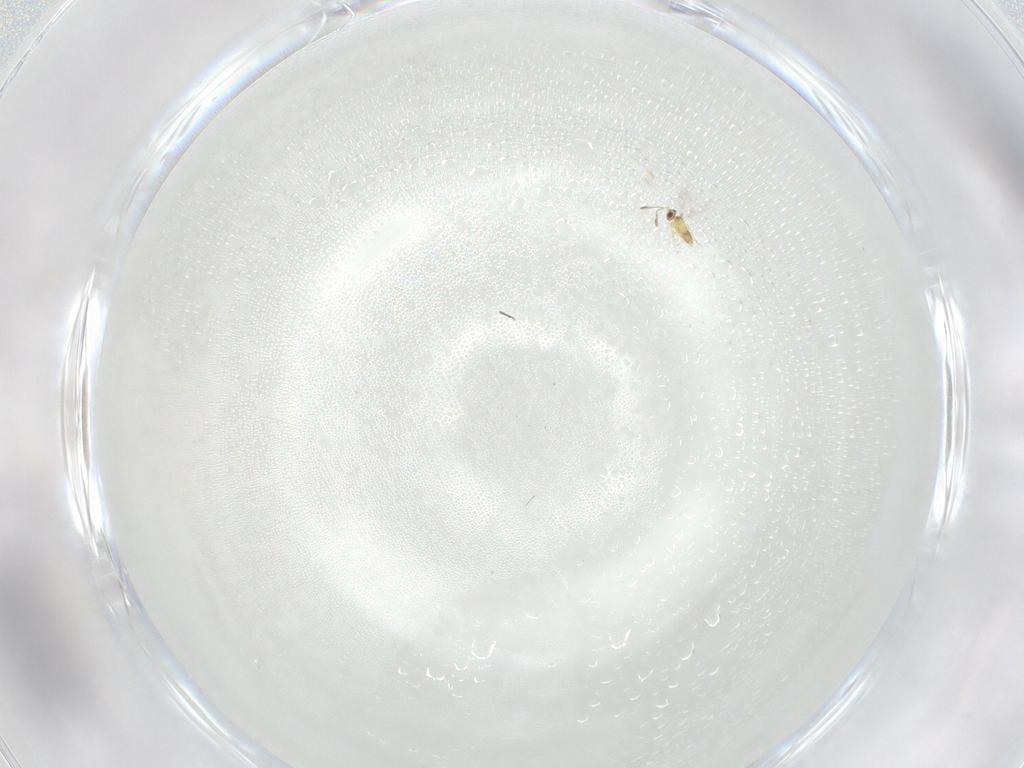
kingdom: Animalia
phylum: Arthropoda
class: Insecta
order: Hymenoptera
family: Mymaridae
